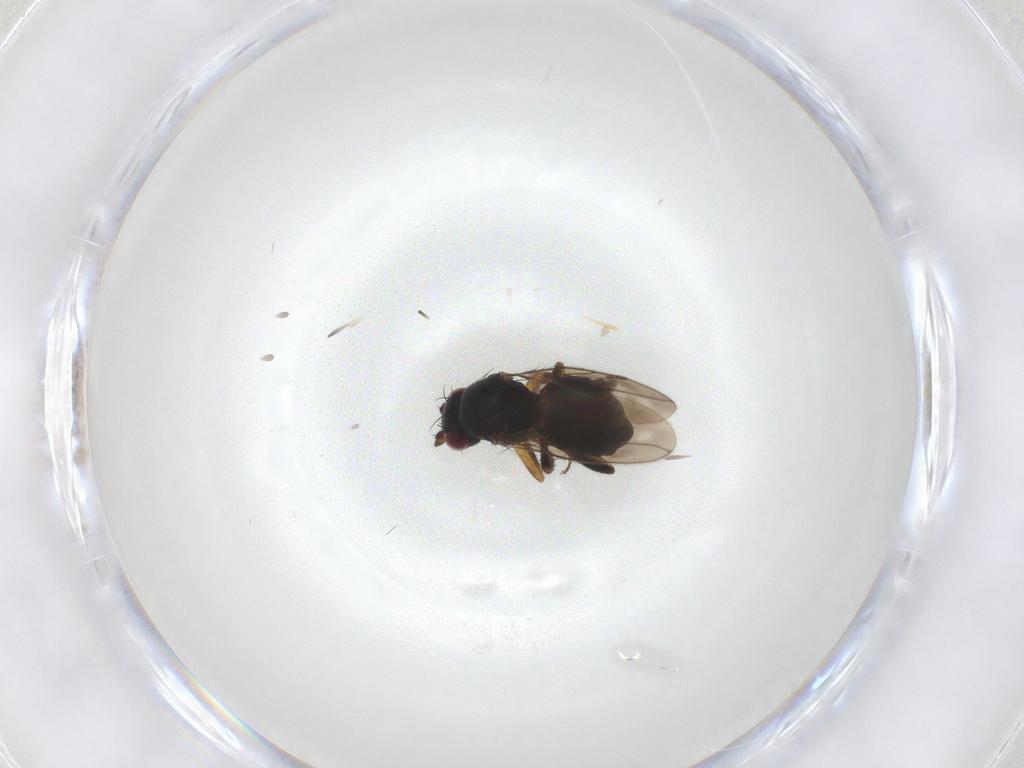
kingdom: Animalia
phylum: Arthropoda
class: Insecta
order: Diptera
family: Sphaeroceridae
